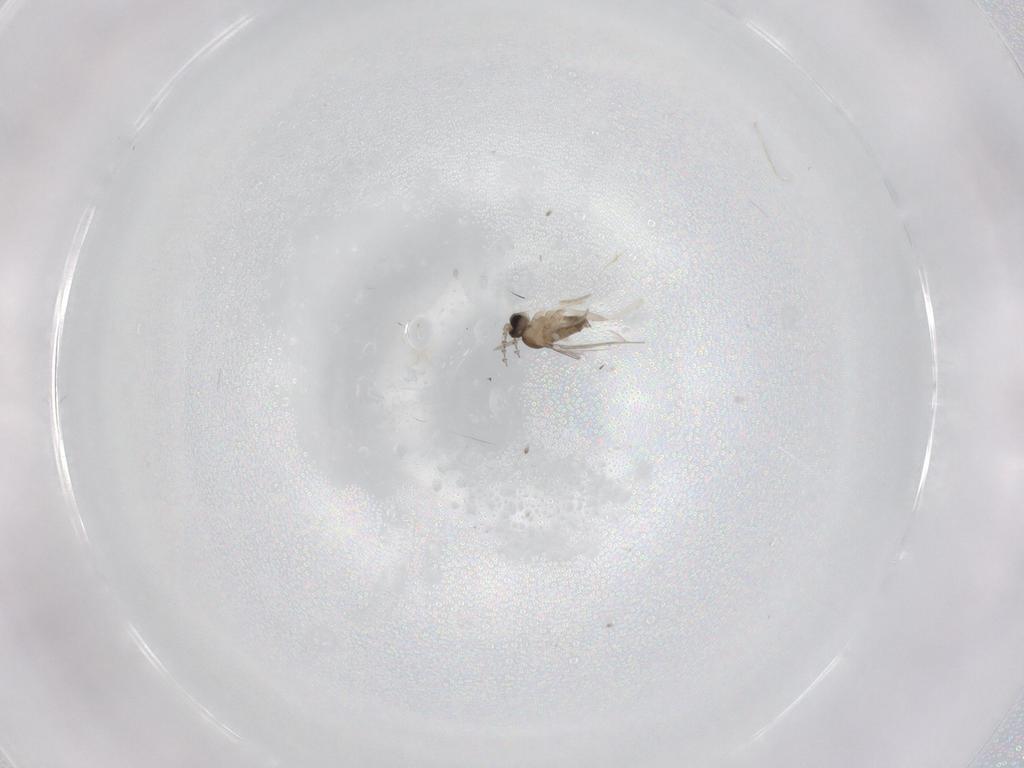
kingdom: Animalia
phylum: Arthropoda
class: Insecta
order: Diptera
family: Cecidomyiidae
